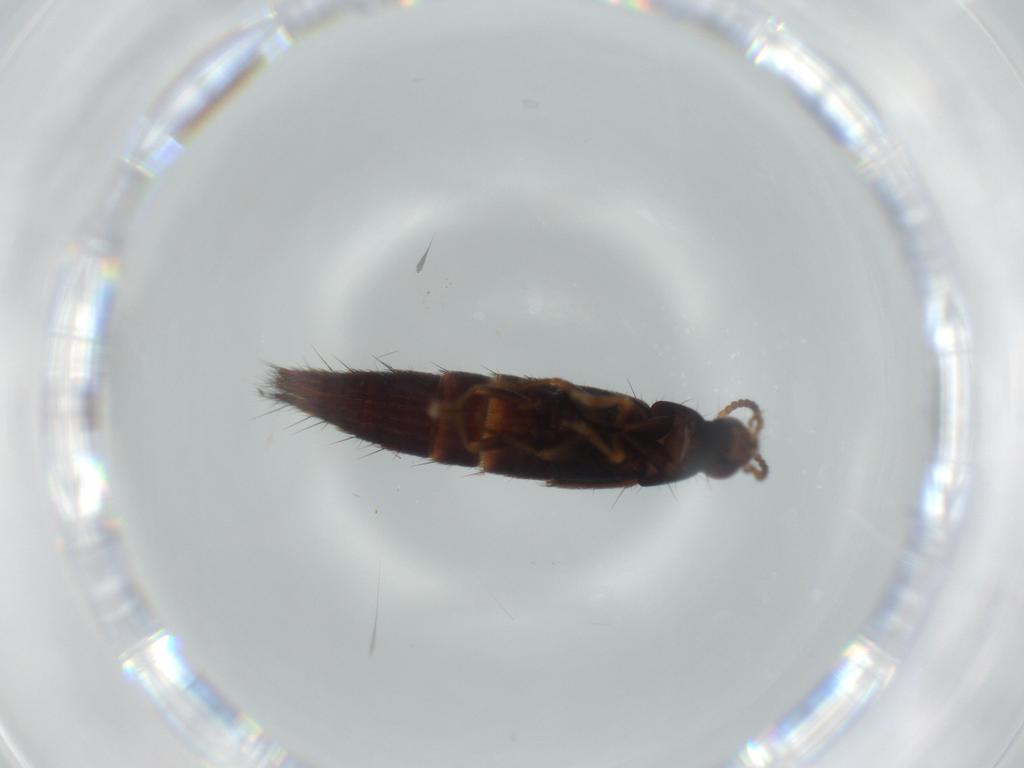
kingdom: Animalia
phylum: Arthropoda
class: Insecta
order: Coleoptera
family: Staphylinidae
